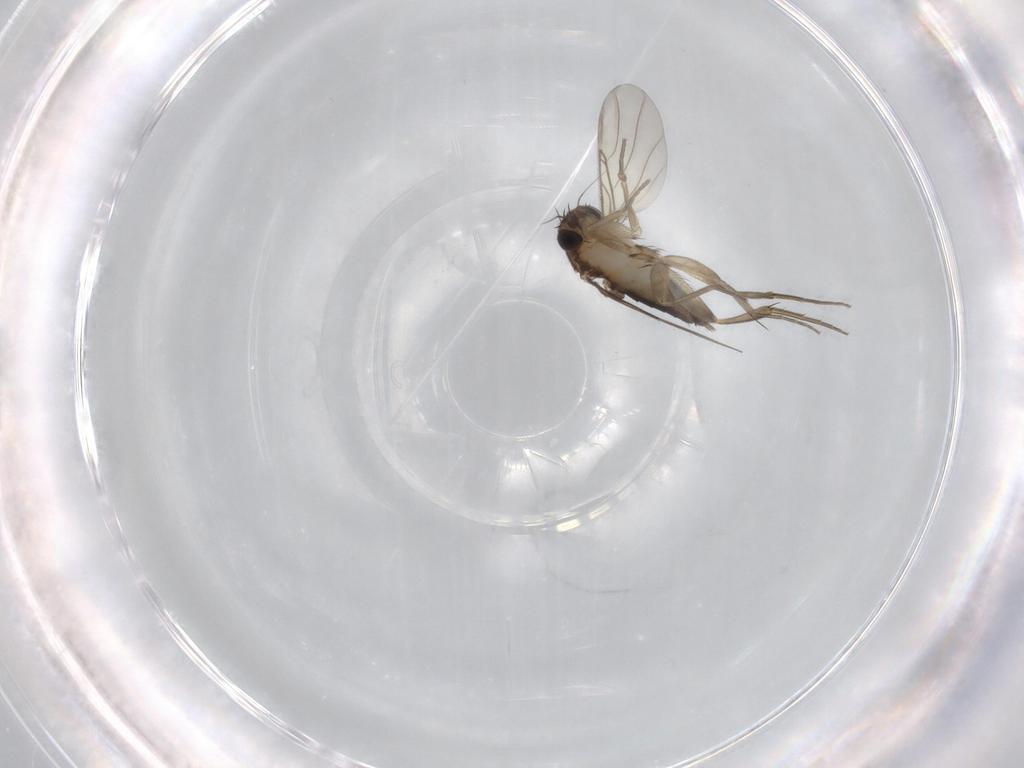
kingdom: Animalia
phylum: Arthropoda
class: Insecta
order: Diptera
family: Phoridae
